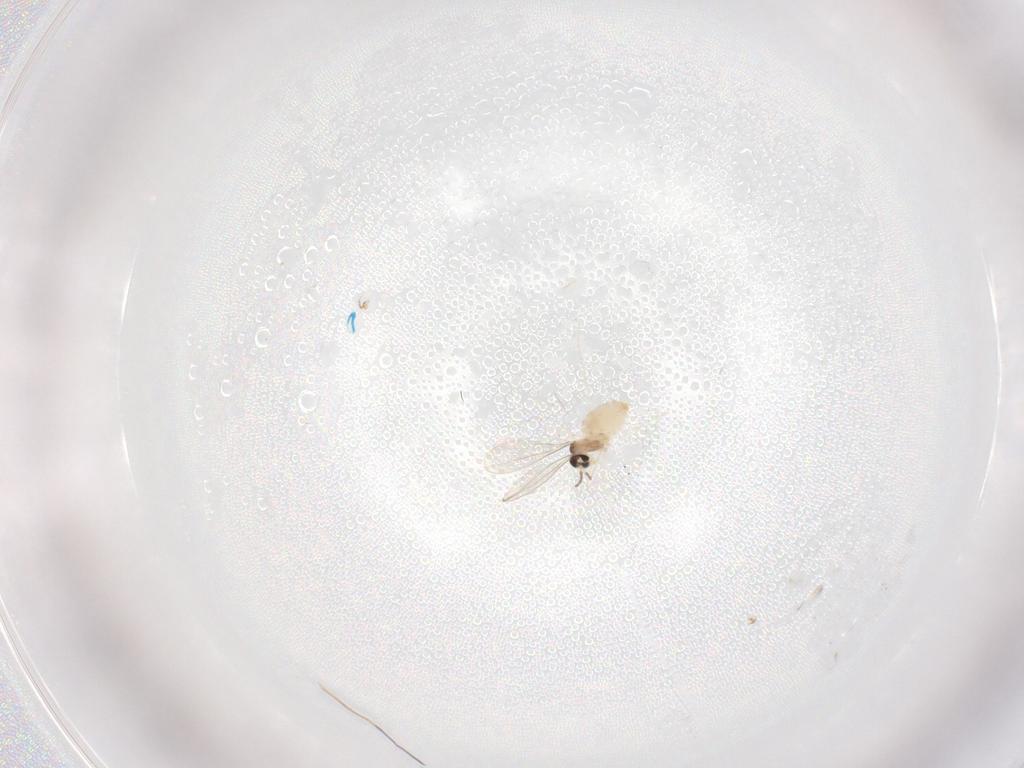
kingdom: Animalia
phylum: Arthropoda
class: Insecta
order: Diptera
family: Cecidomyiidae
